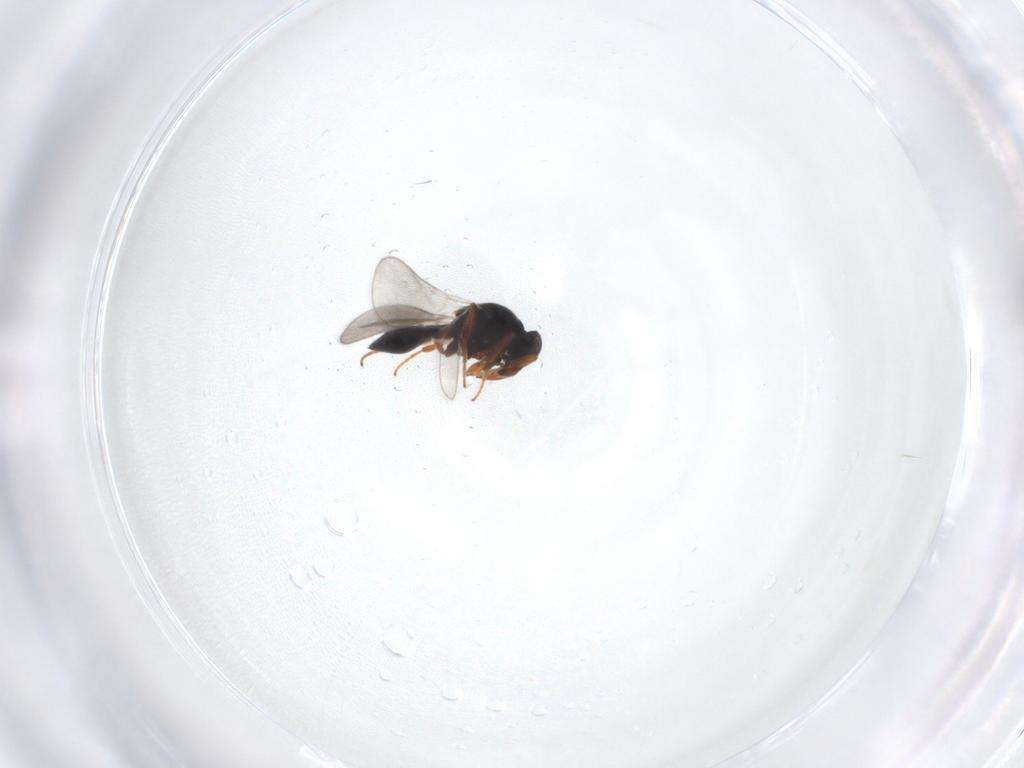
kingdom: Animalia
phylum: Arthropoda
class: Insecta
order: Hymenoptera
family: Platygastridae
